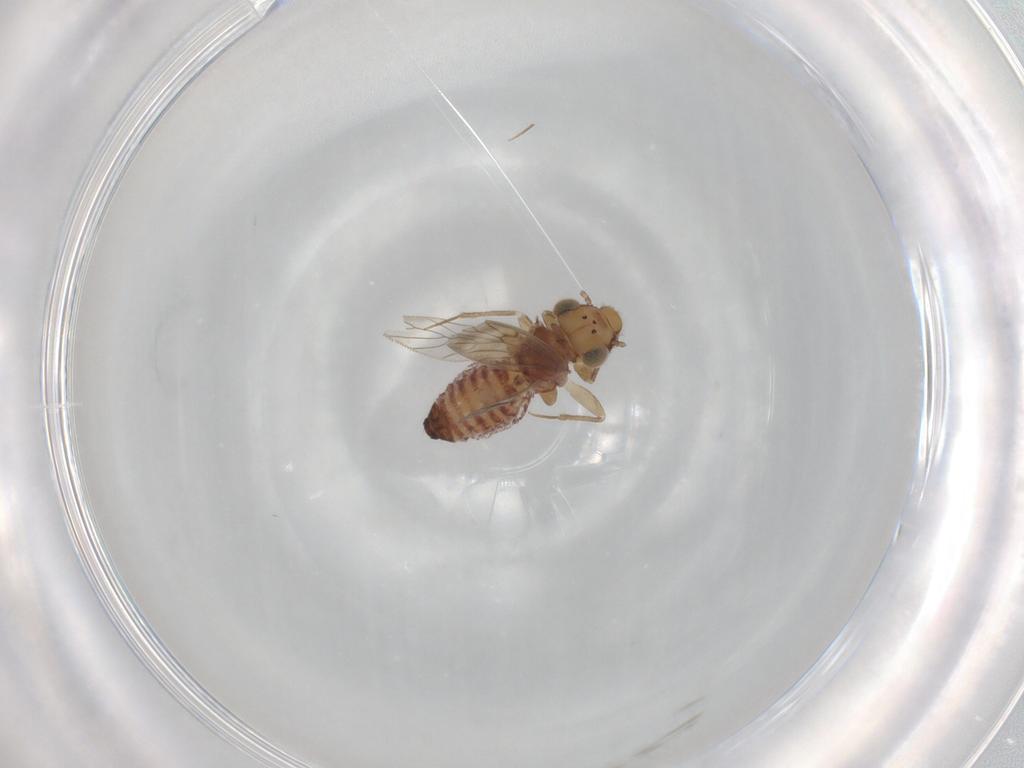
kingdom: Animalia
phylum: Arthropoda
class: Insecta
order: Psocodea
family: Lepidopsocidae
